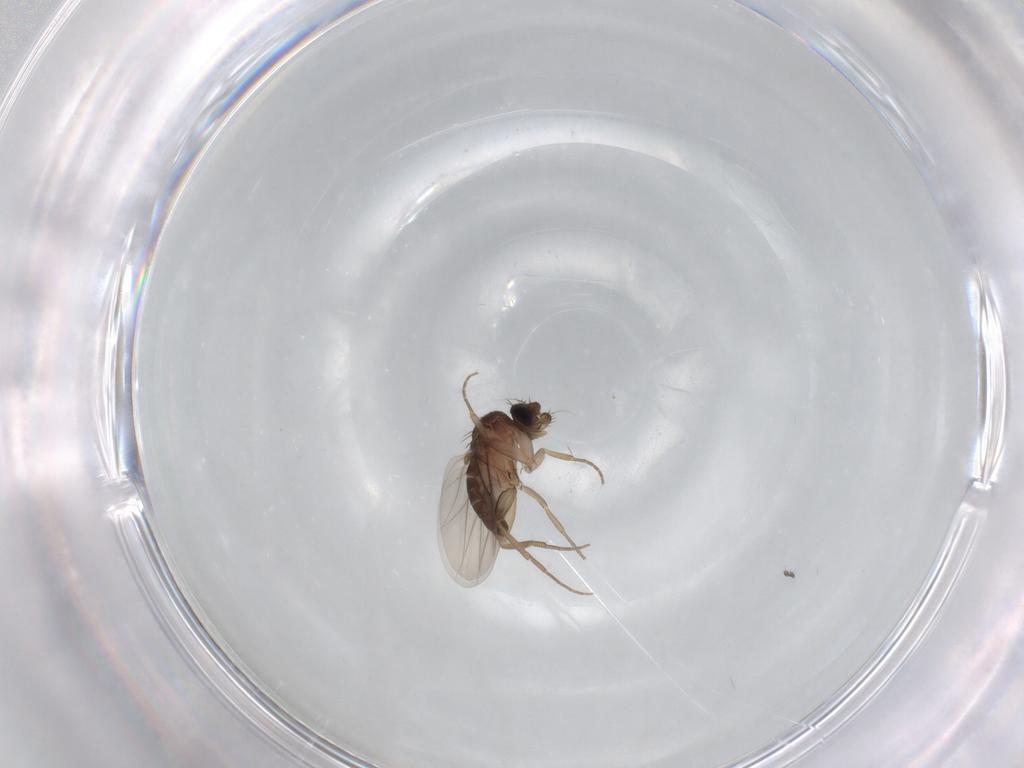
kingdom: Animalia
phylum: Arthropoda
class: Insecta
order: Diptera
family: Phoridae
